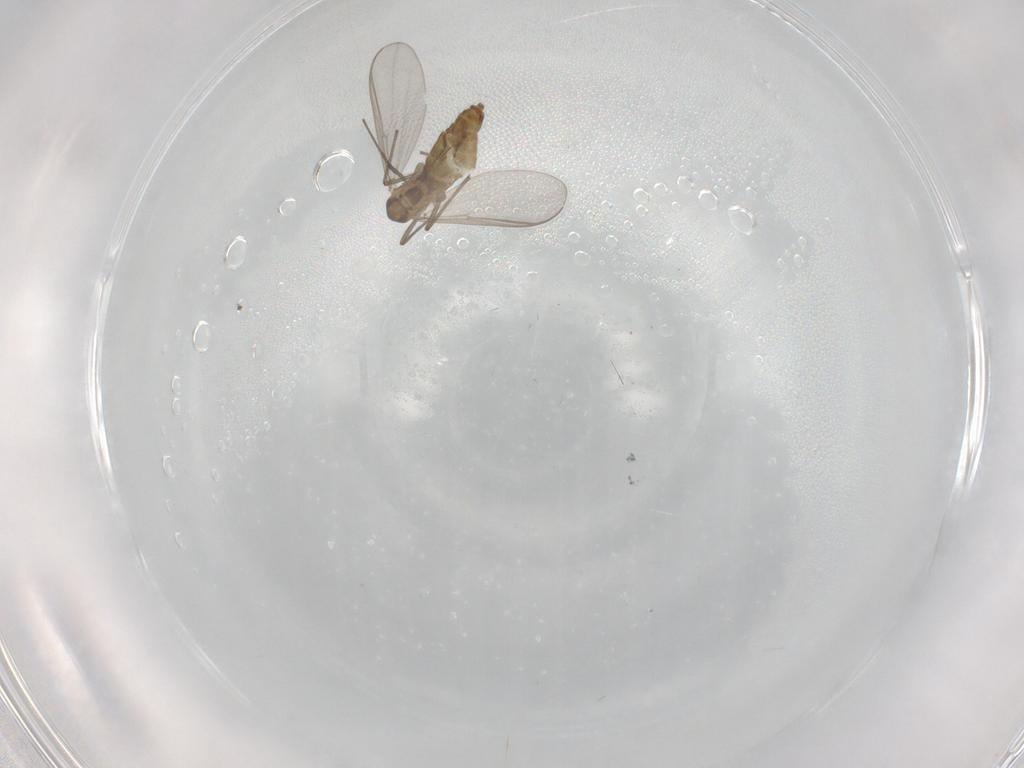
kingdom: Animalia
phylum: Arthropoda
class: Insecta
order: Diptera
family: Chironomidae
